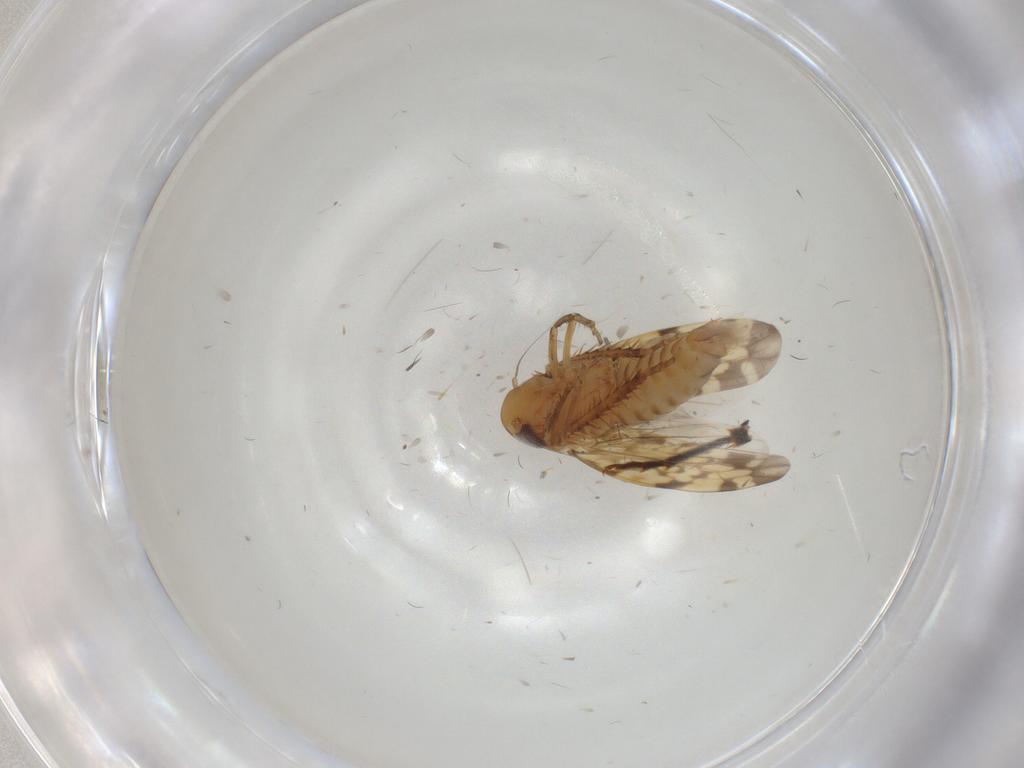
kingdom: Animalia
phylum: Arthropoda
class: Insecta
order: Hemiptera
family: Cicadellidae
